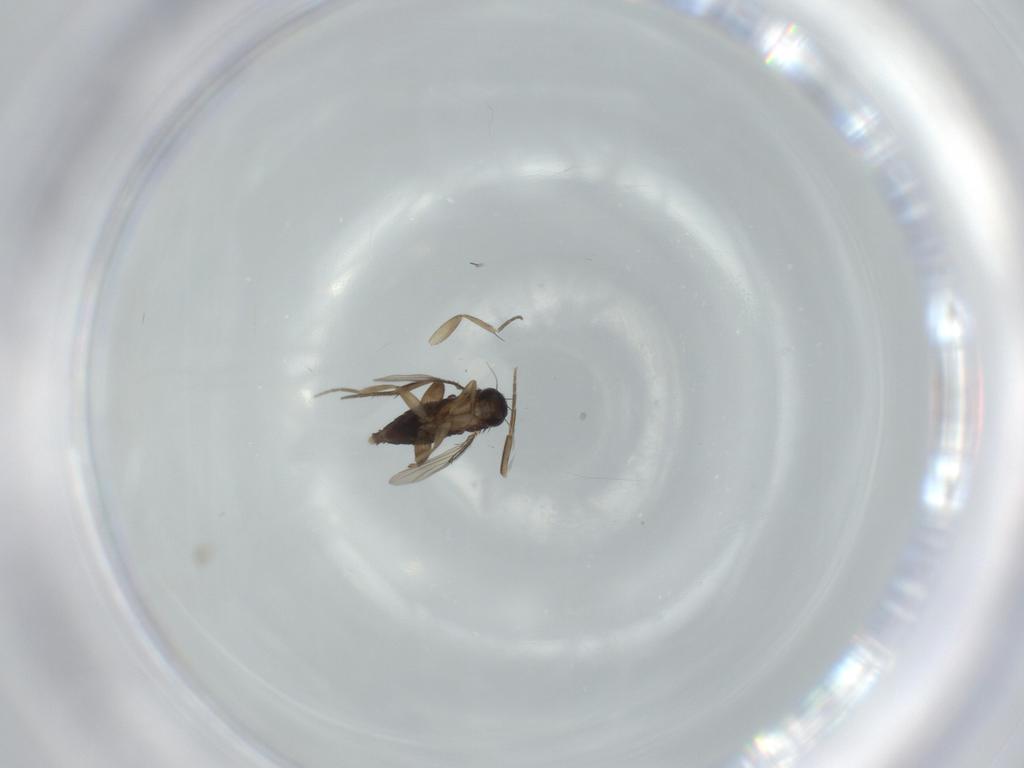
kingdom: Animalia
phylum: Arthropoda
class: Insecta
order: Diptera
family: Phoridae
